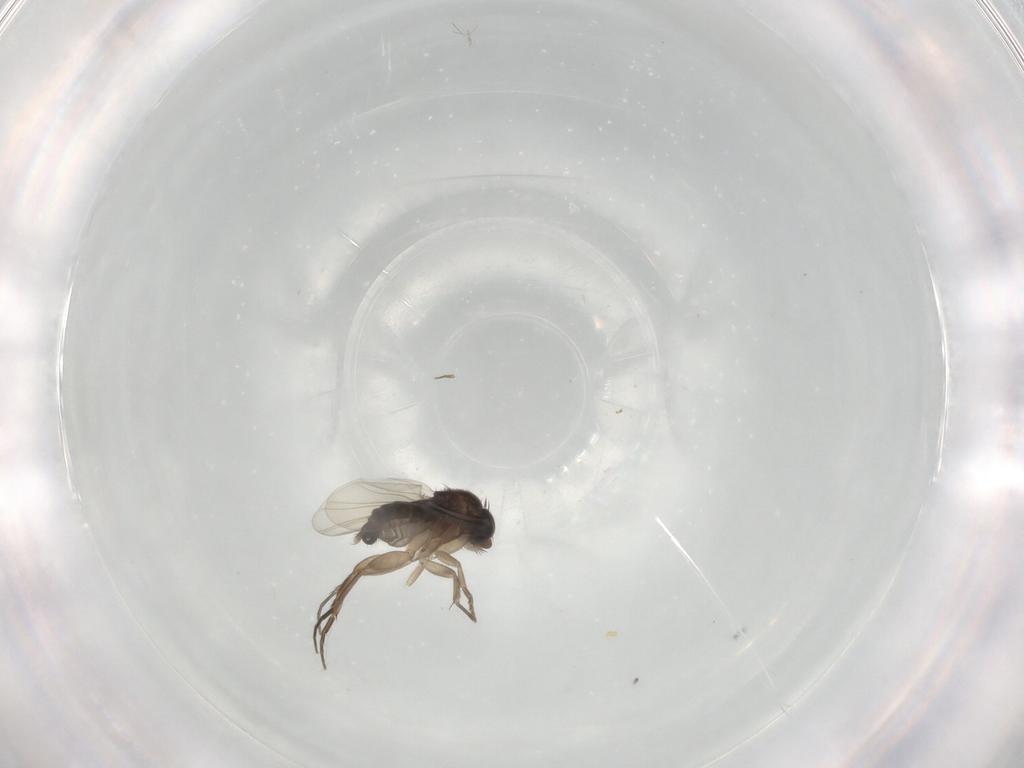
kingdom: Animalia
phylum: Arthropoda
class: Insecta
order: Diptera
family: Phoridae
